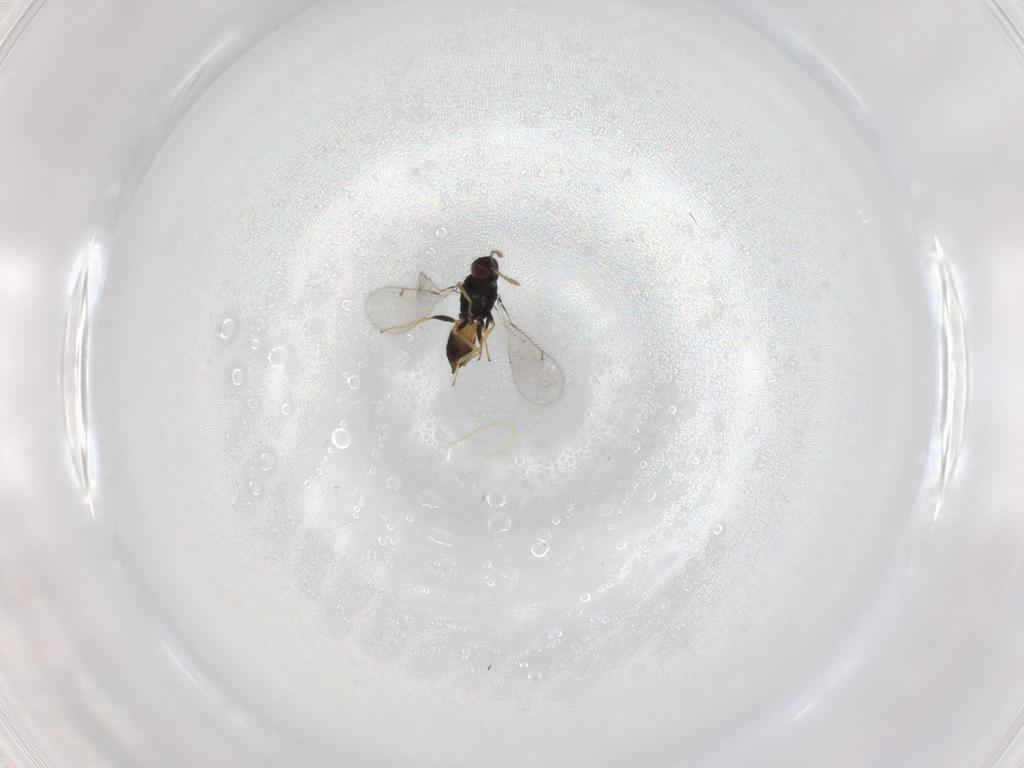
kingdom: Animalia
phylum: Arthropoda
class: Insecta
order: Hymenoptera
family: Eulophidae
